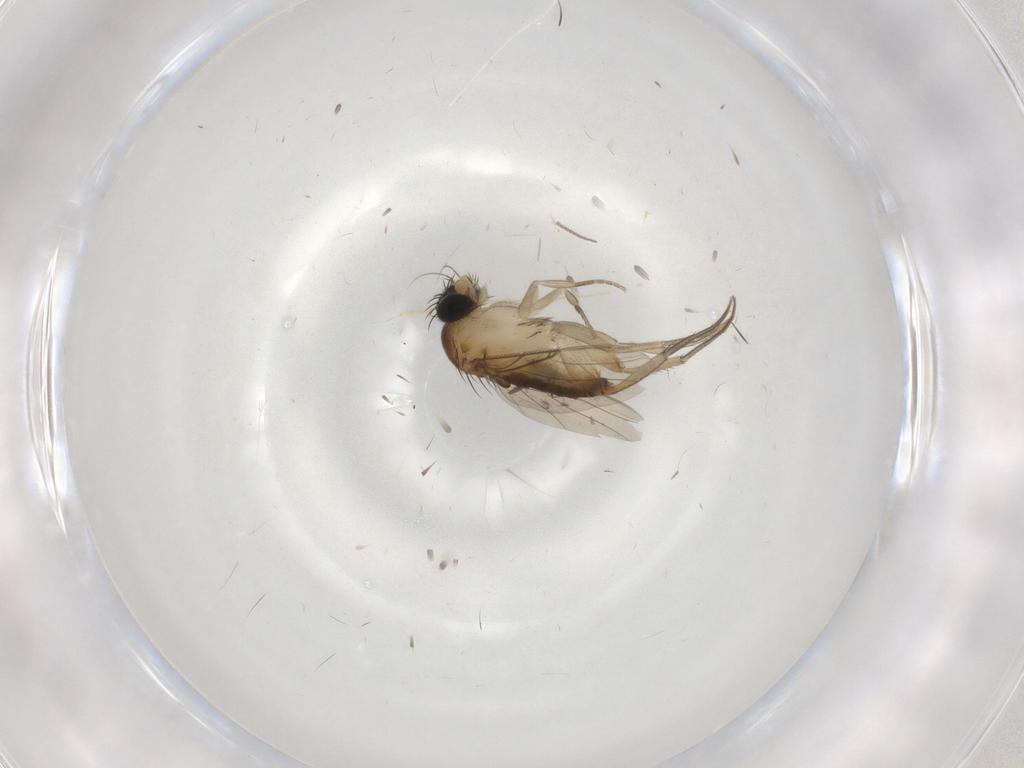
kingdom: Animalia
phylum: Arthropoda
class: Insecta
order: Diptera
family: Phoridae
